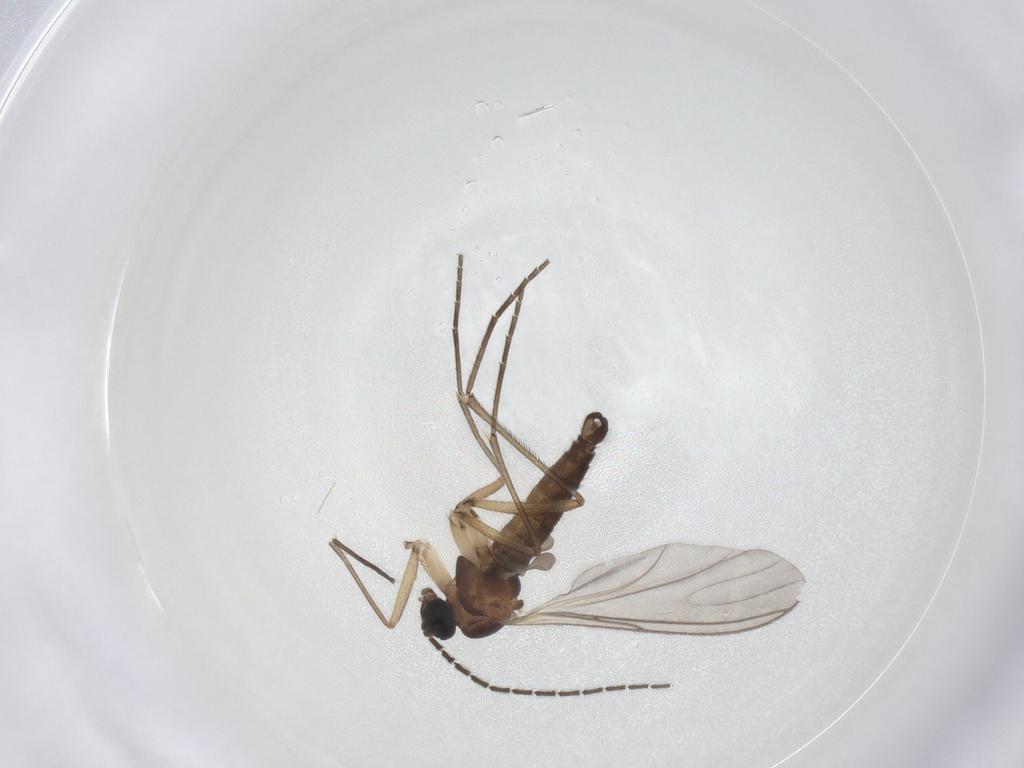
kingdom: Animalia
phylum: Arthropoda
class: Insecta
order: Diptera
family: Sciaridae
